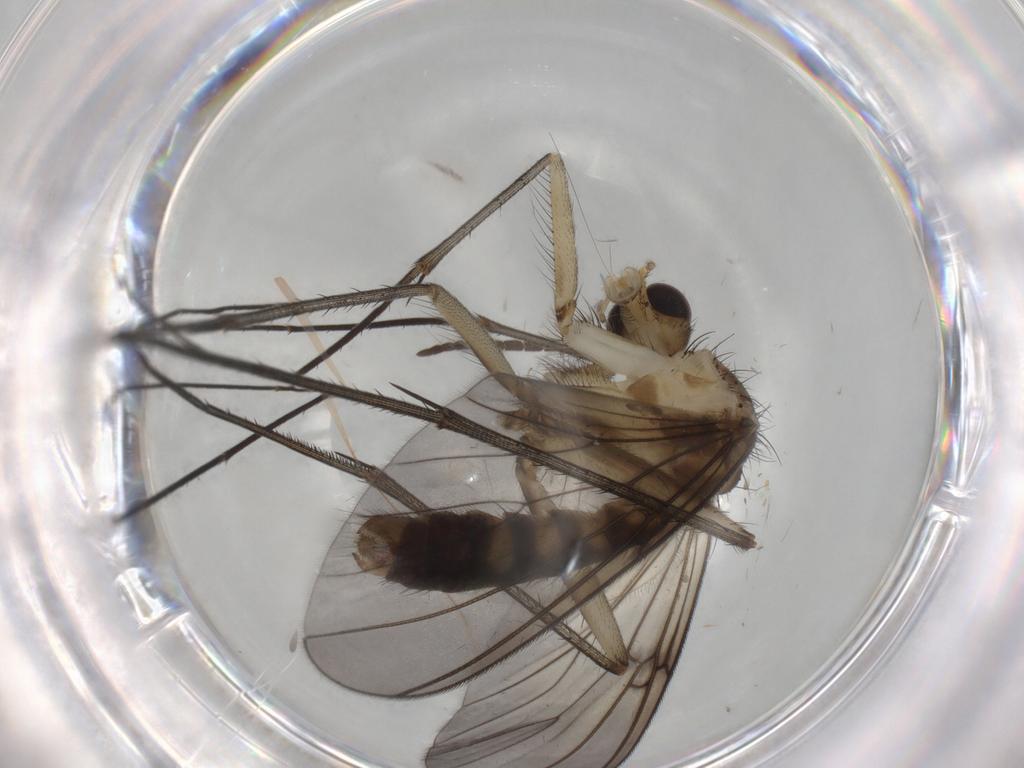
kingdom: Animalia
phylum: Arthropoda
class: Insecta
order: Diptera
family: Mycetophilidae
